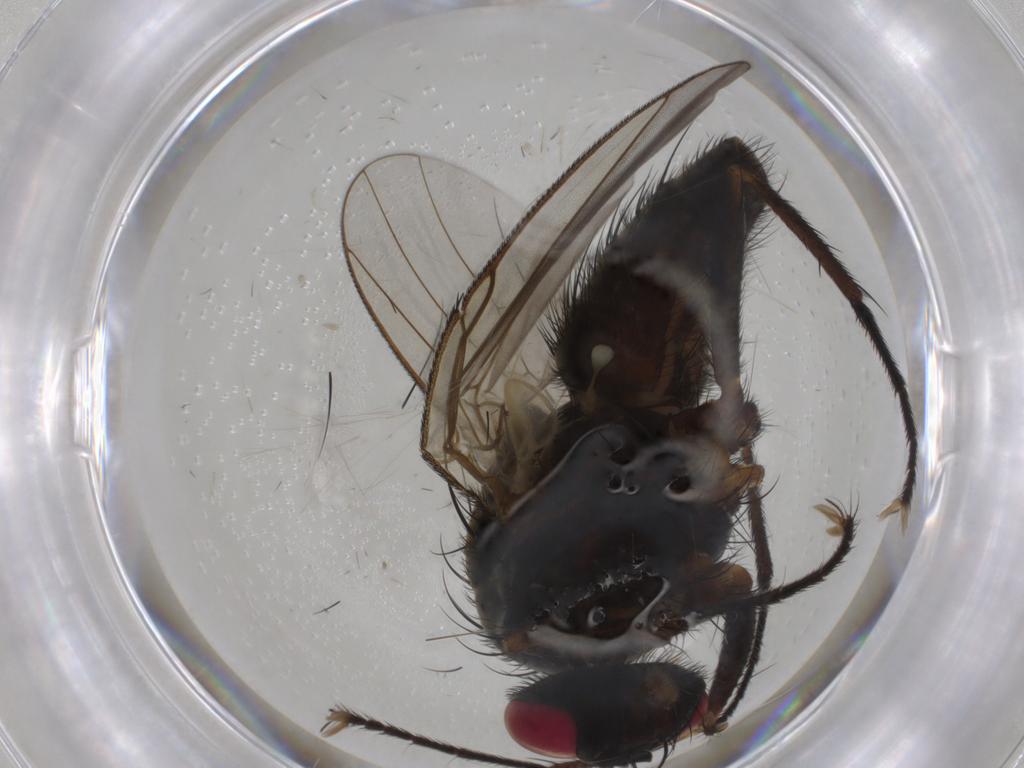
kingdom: Animalia
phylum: Arthropoda
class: Insecta
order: Diptera
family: Muscidae
